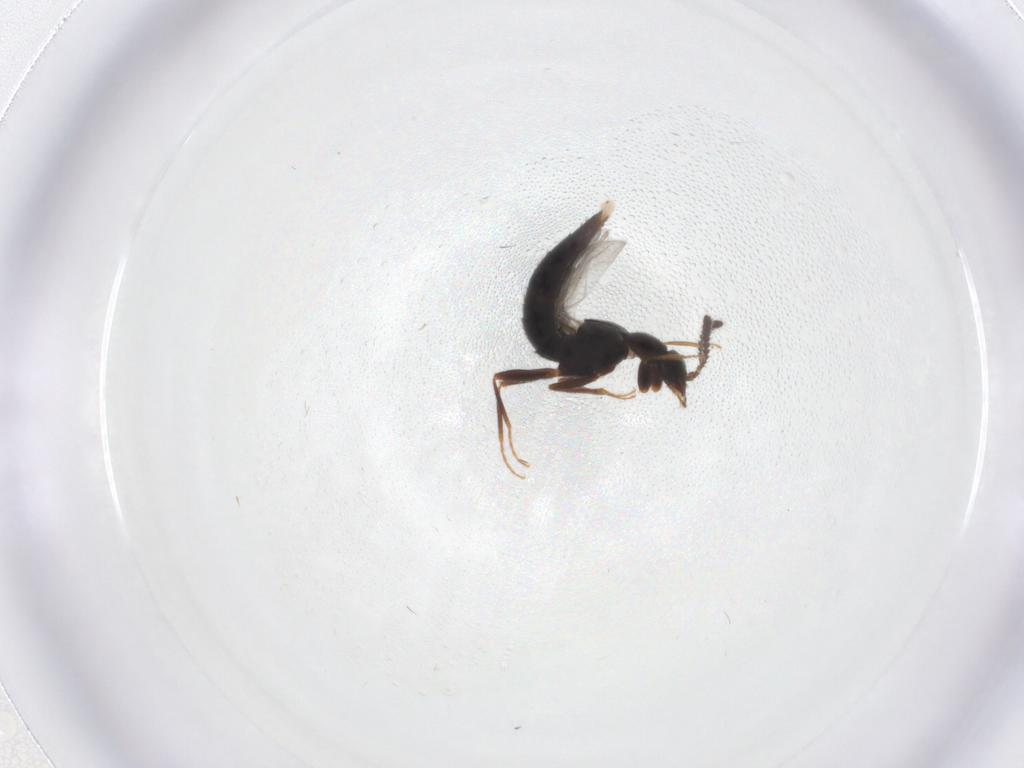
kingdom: Animalia
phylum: Arthropoda
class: Insecta
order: Coleoptera
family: Staphylinidae
